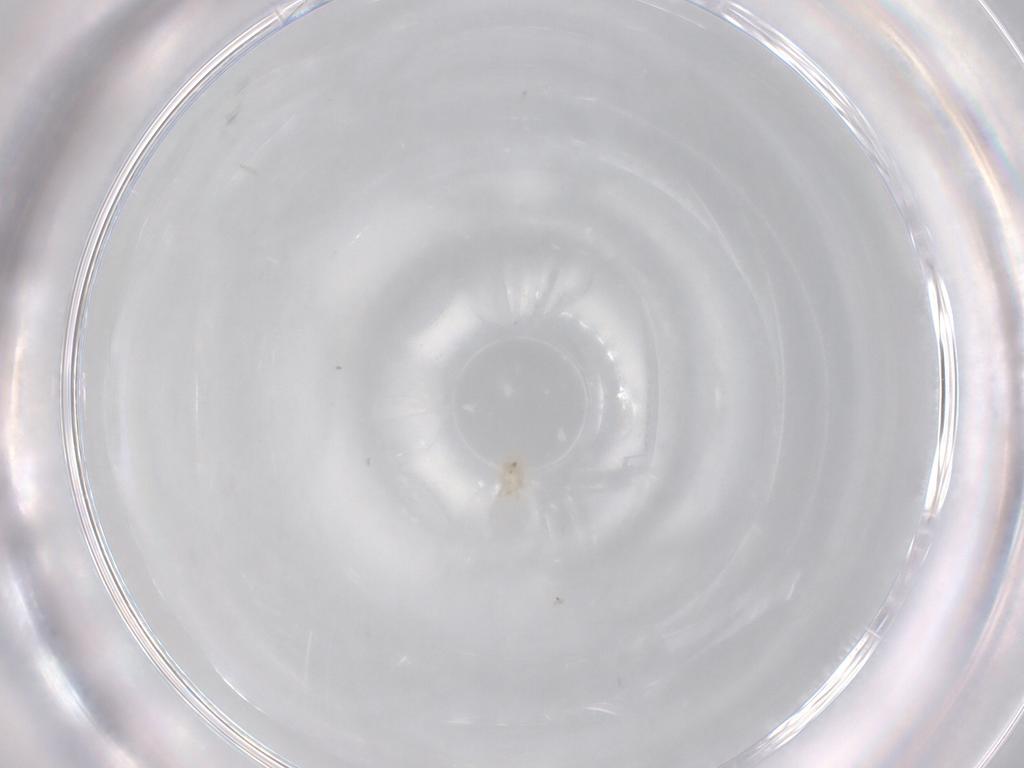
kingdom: Animalia
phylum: Arthropoda
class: Arachnida
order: Mesostigmata
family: Halolaelapidae
